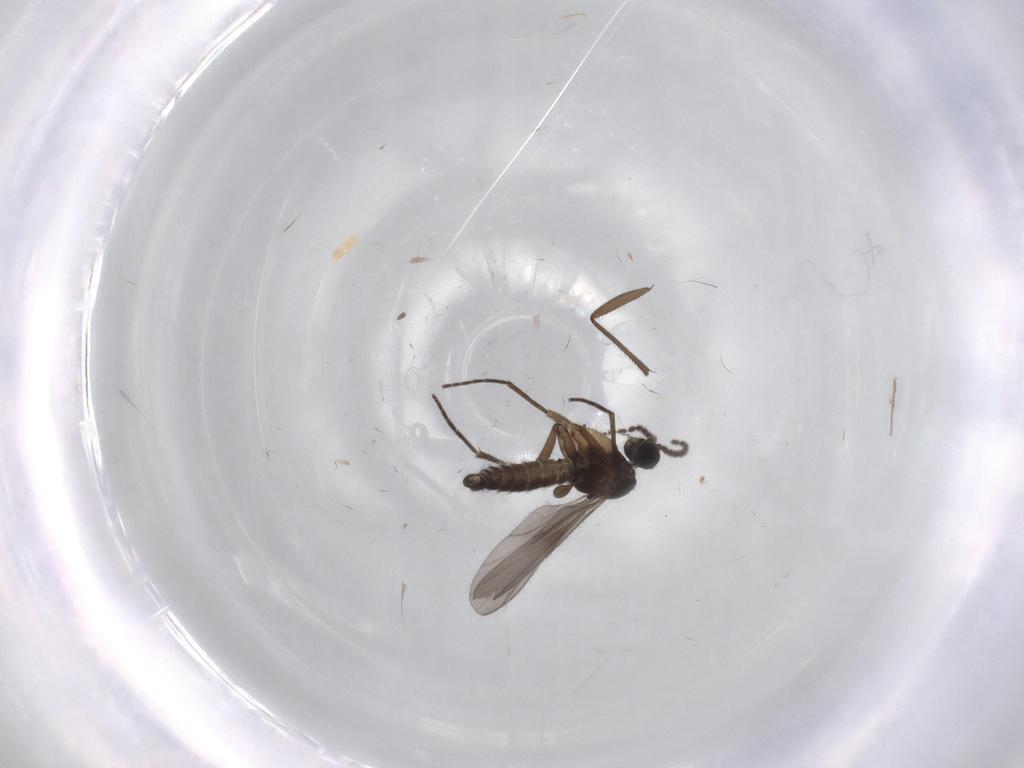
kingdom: Animalia
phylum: Arthropoda
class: Insecta
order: Diptera
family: Sciaridae
